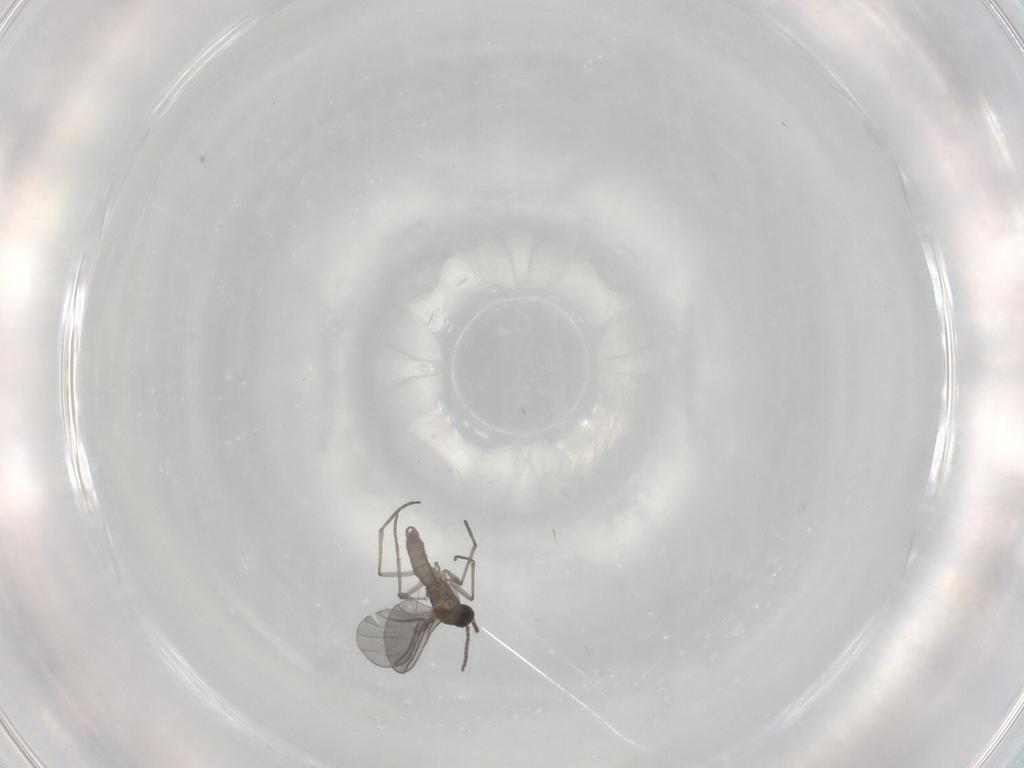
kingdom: Animalia
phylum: Arthropoda
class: Insecta
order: Diptera
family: Sciaridae
